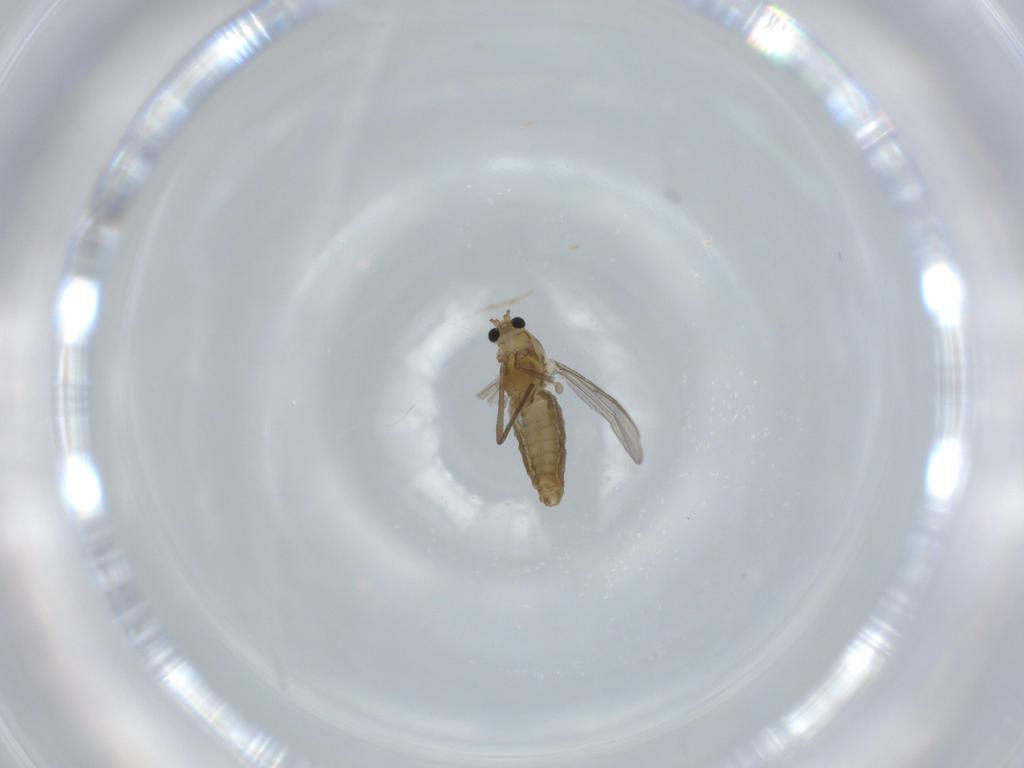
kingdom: Animalia
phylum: Arthropoda
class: Insecta
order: Diptera
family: Chironomidae
